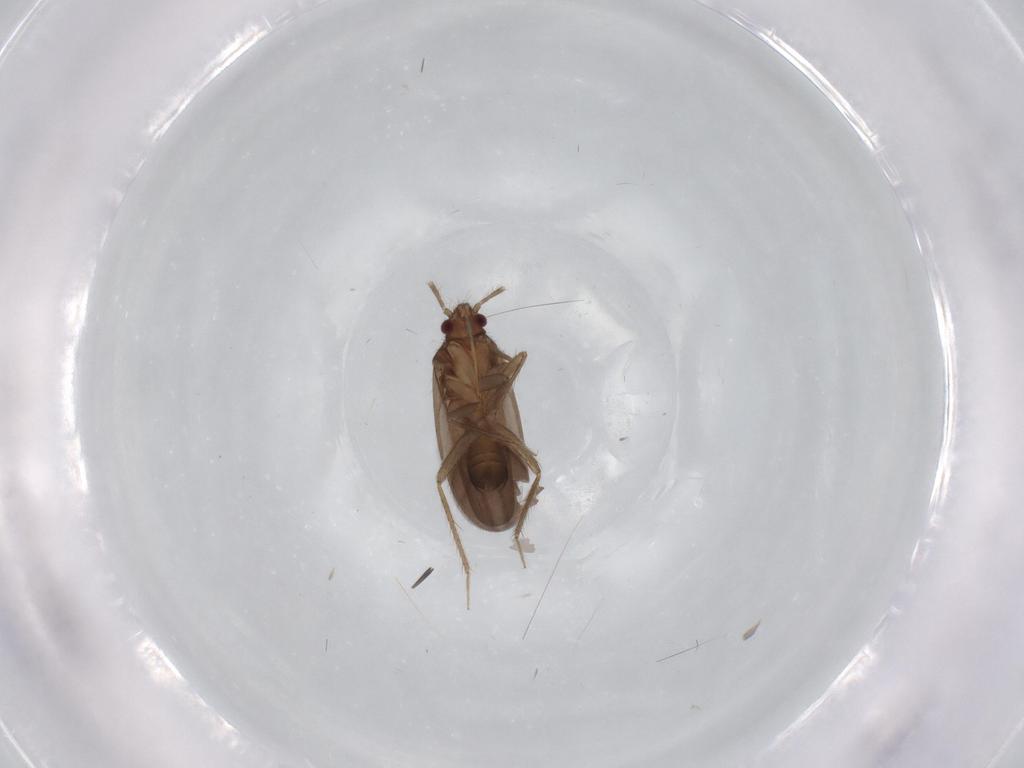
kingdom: Animalia
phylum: Arthropoda
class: Insecta
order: Hemiptera
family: Ceratocombidae
